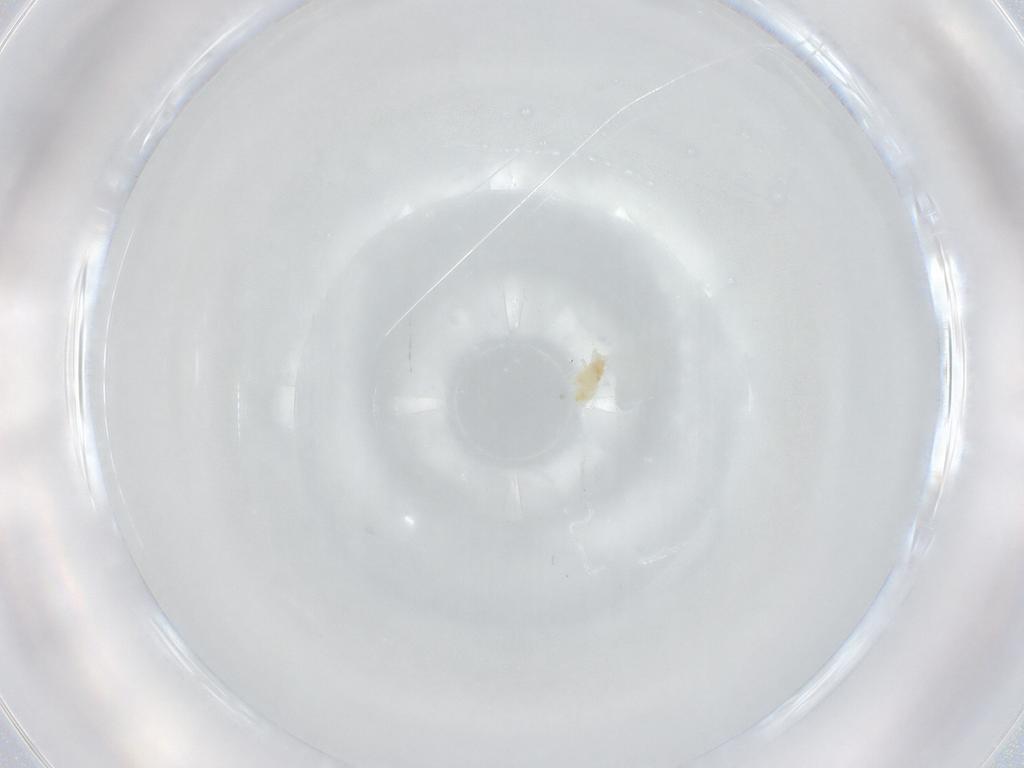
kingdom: Animalia
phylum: Arthropoda
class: Arachnida
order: Trombidiformes
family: Eupodidae
